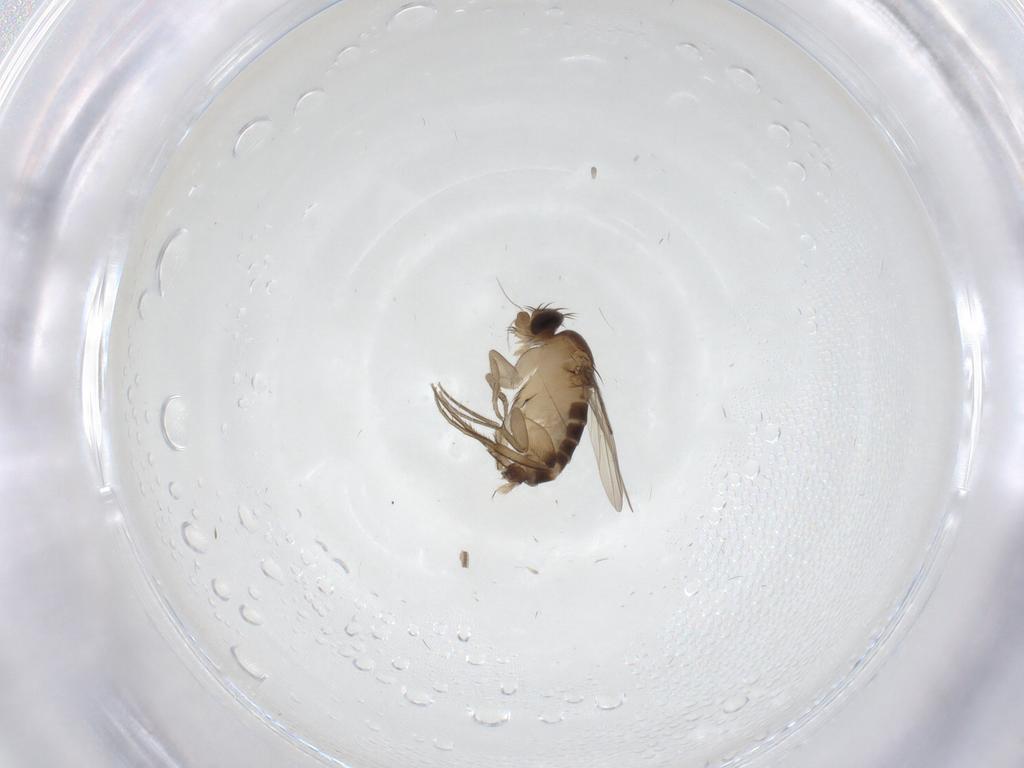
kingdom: Animalia
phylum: Arthropoda
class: Insecta
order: Diptera
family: Phoridae
